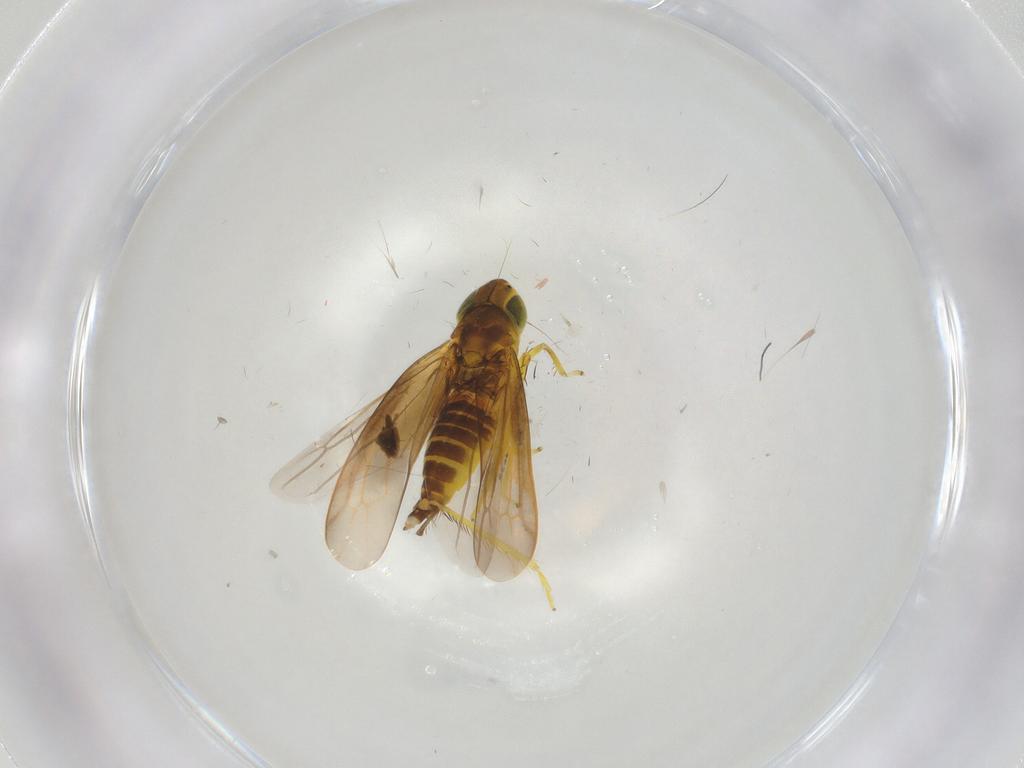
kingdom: Animalia
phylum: Arthropoda
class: Insecta
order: Hemiptera
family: Cicadellidae
